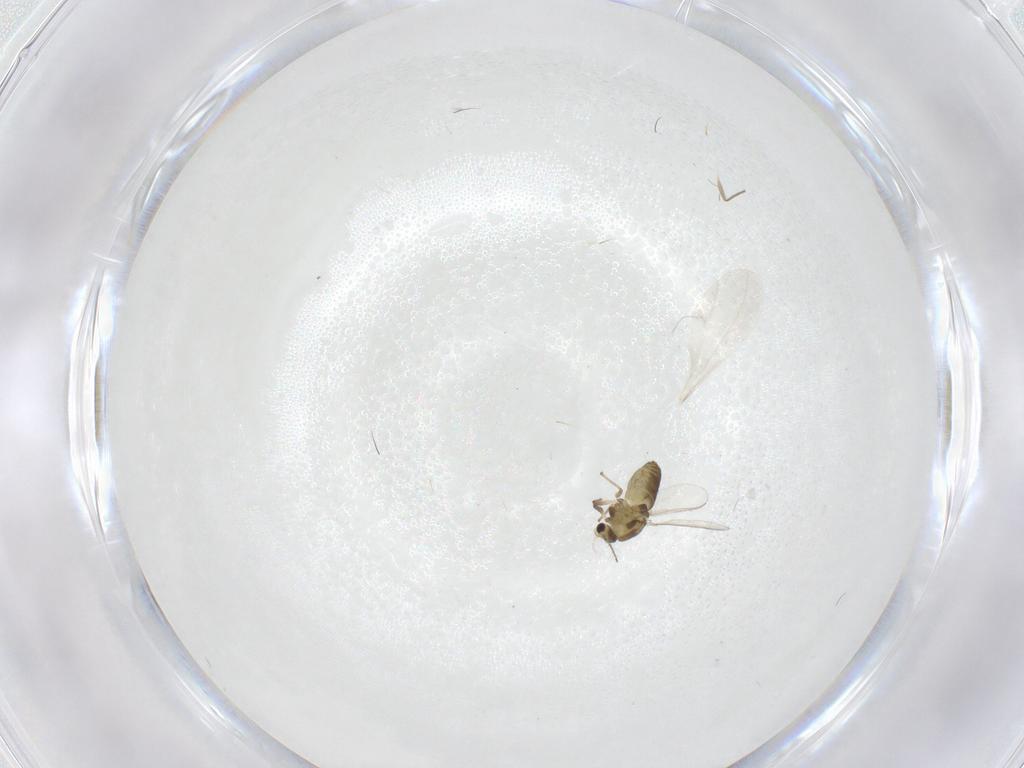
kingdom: Animalia
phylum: Arthropoda
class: Insecta
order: Diptera
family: Chironomidae
